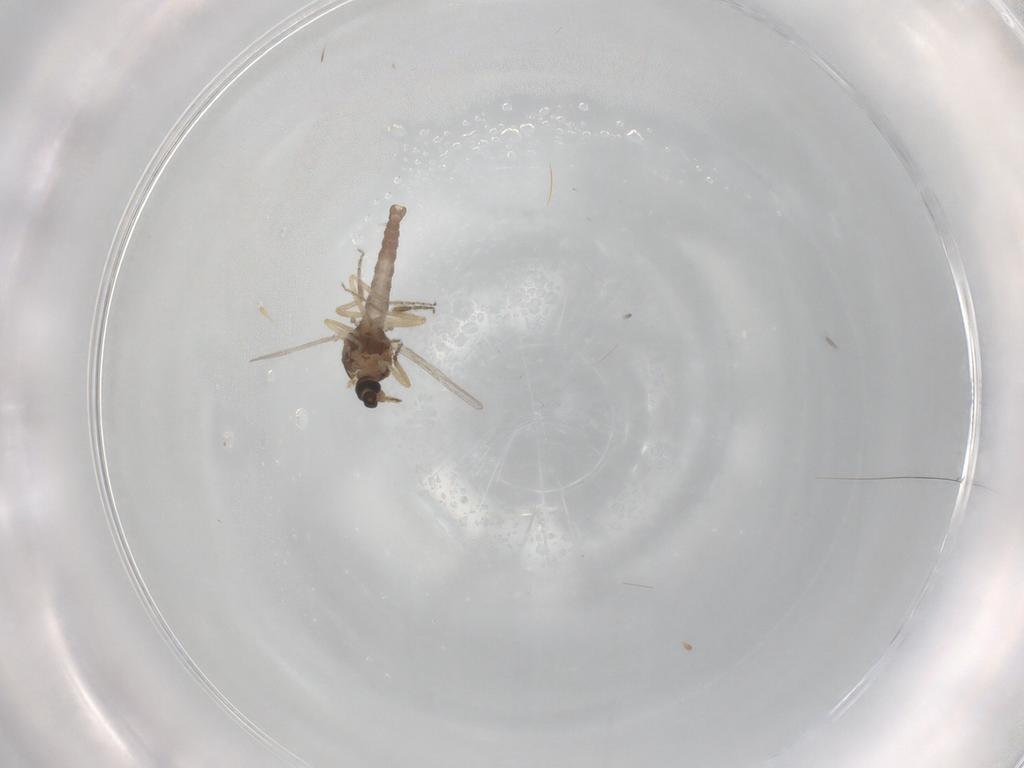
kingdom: Animalia
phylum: Arthropoda
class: Insecta
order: Diptera
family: Ceratopogonidae
